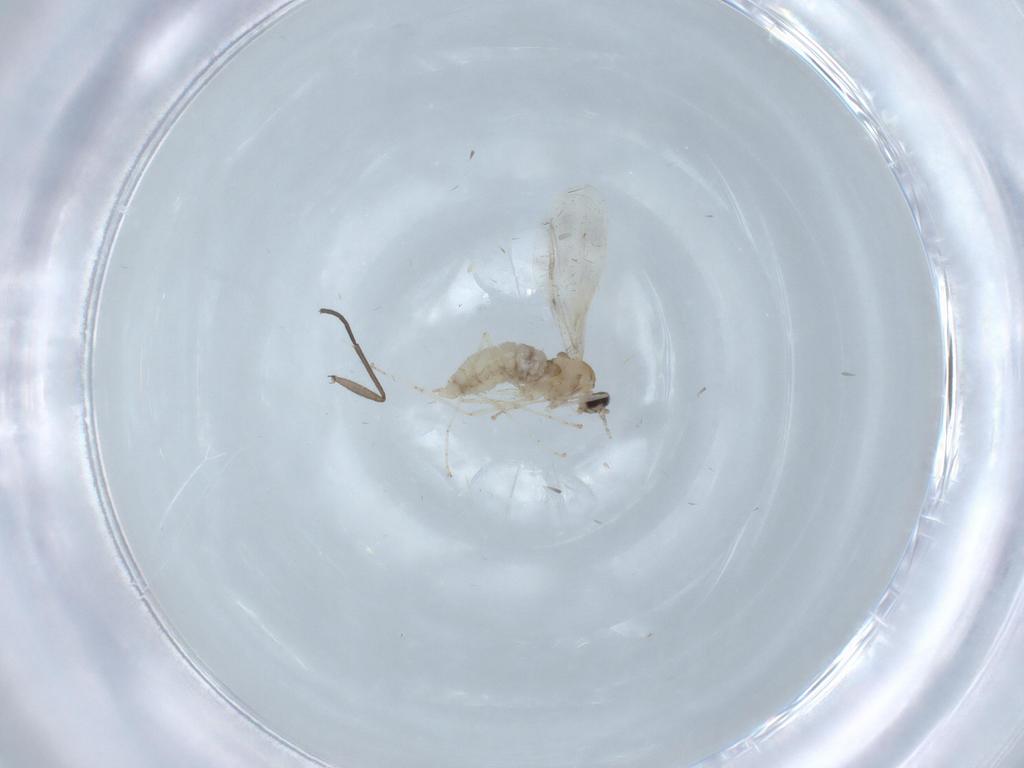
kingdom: Animalia
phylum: Arthropoda
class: Insecta
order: Diptera
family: Cecidomyiidae
